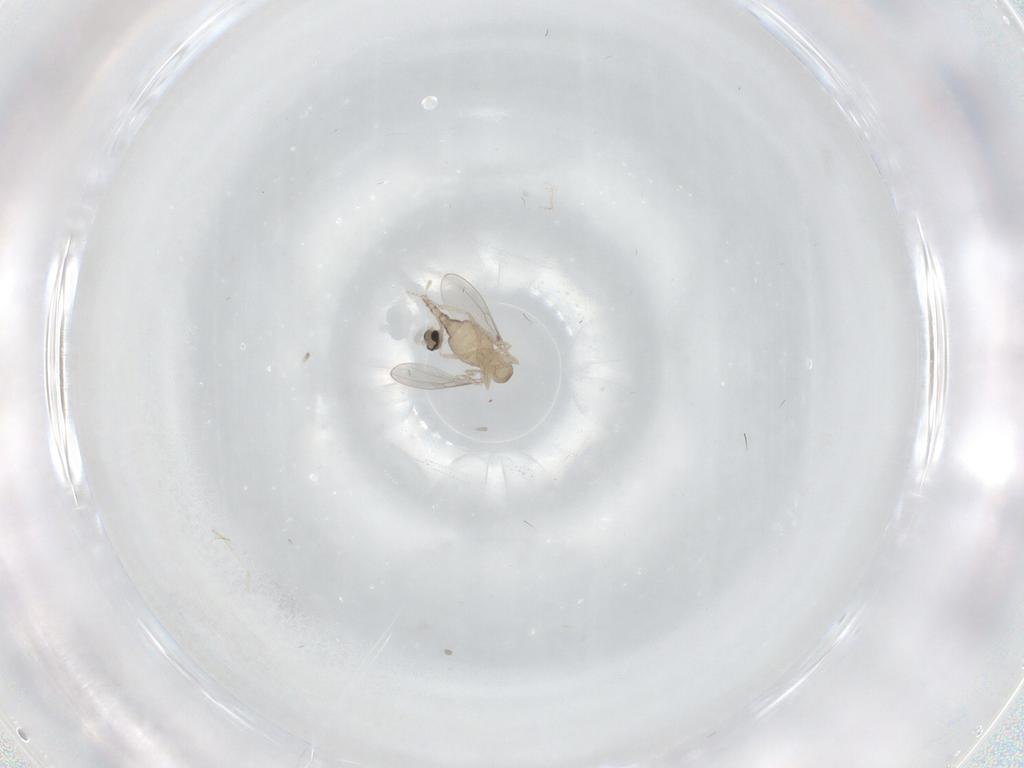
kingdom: Animalia
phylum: Arthropoda
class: Insecta
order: Diptera
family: Cecidomyiidae
